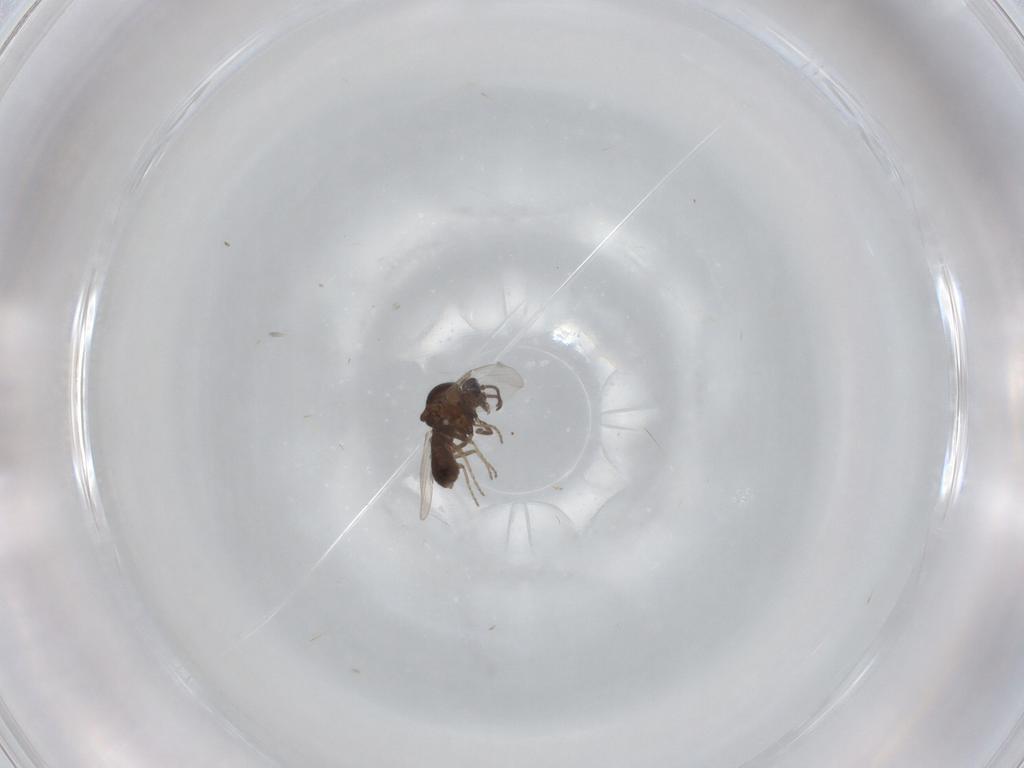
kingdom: Animalia
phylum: Arthropoda
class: Insecta
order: Diptera
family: Ceratopogonidae
